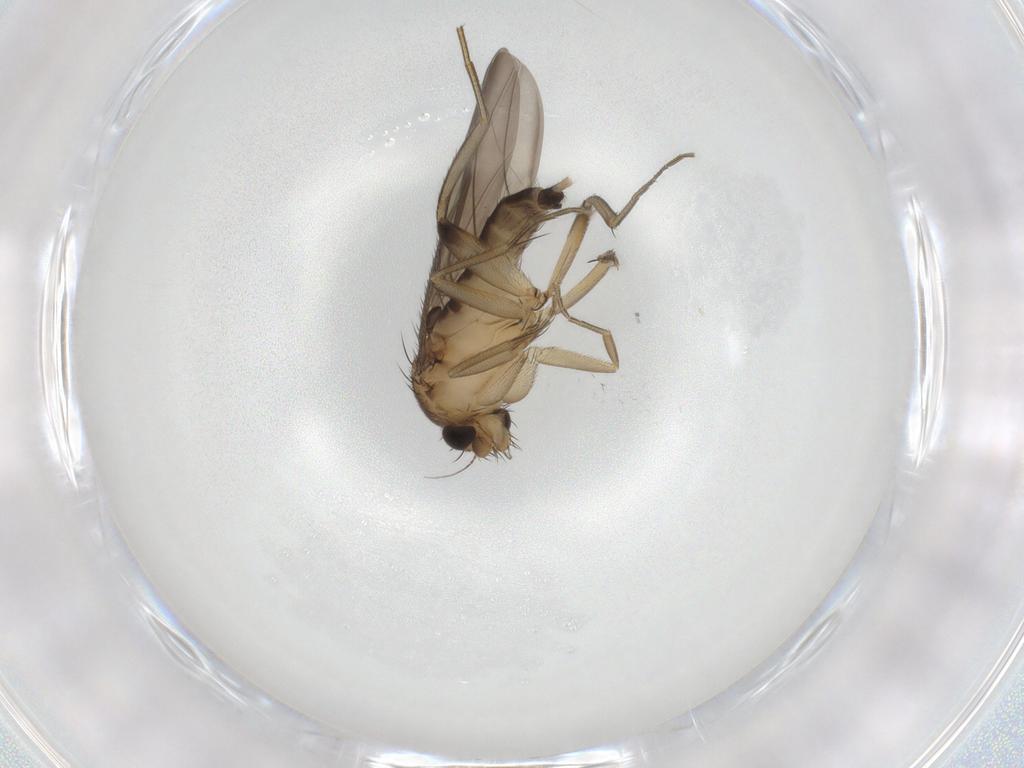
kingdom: Animalia
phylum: Arthropoda
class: Insecta
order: Diptera
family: Phoridae
